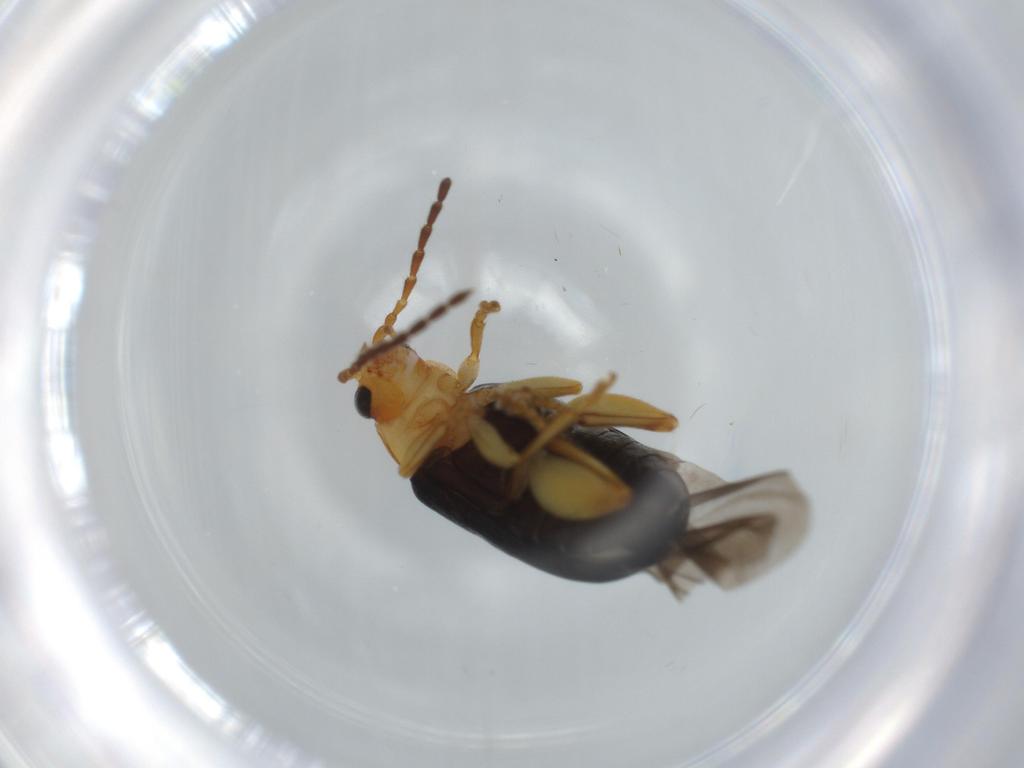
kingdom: Animalia
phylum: Arthropoda
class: Insecta
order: Coleoptera
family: Chrysomelidae
